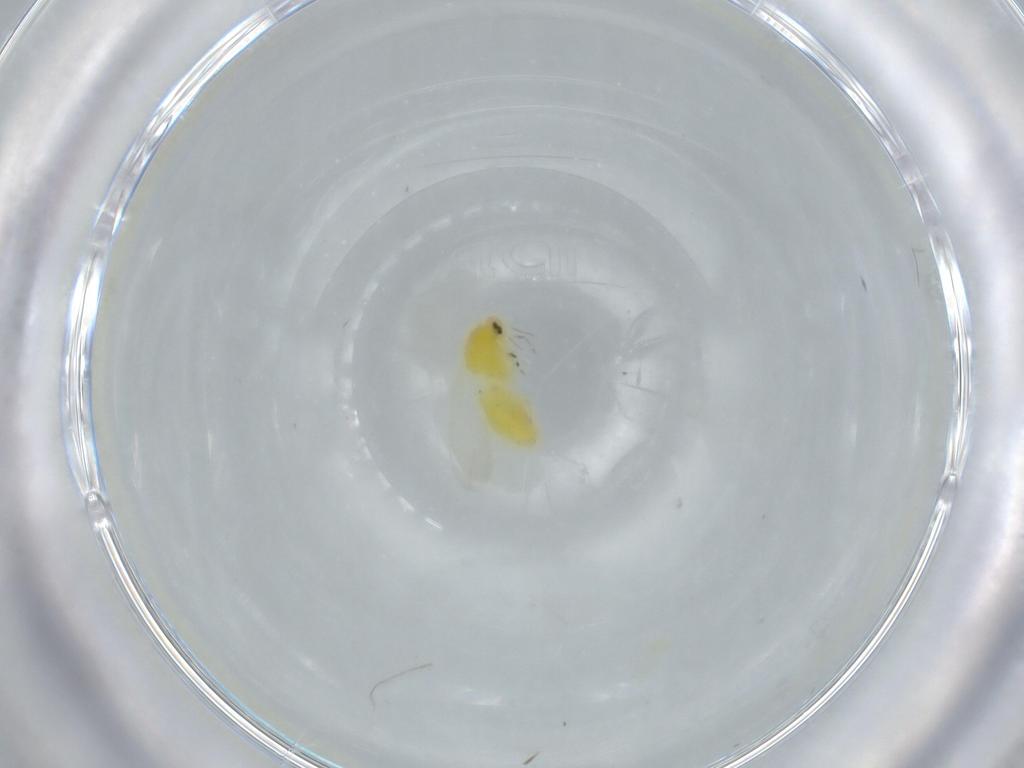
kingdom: Animalia
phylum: Arthropoda
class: Insecta
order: Hemiptera
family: Aleyrodidae
